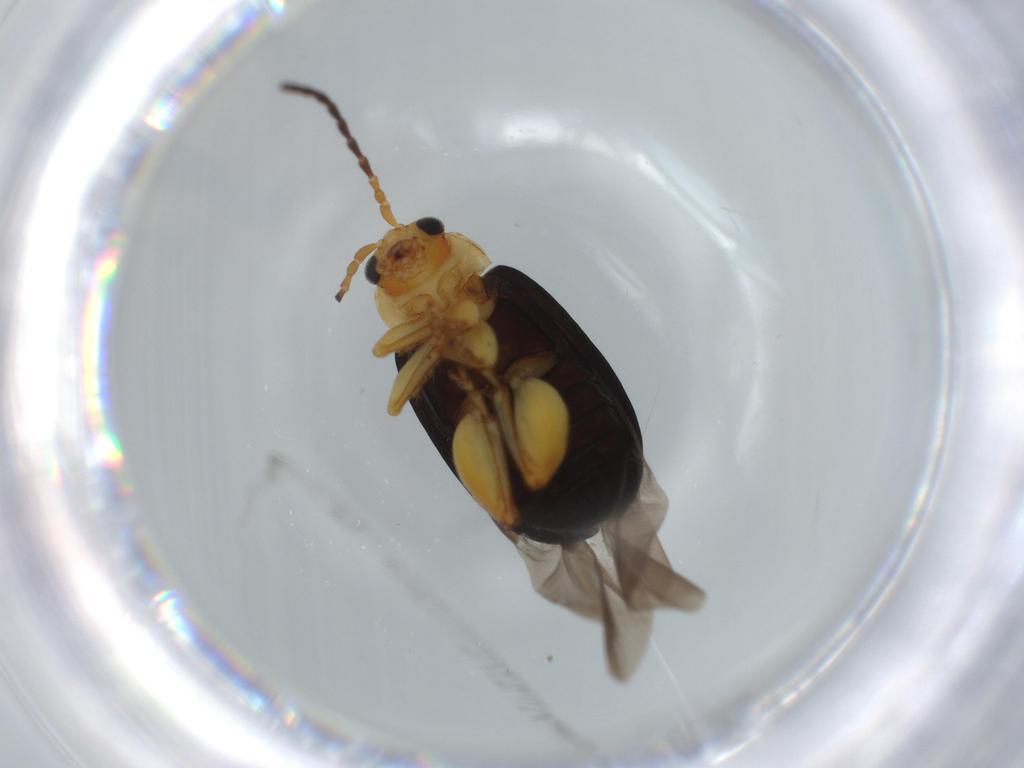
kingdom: Animalia
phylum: Arthropoda
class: Insecta
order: Coleoptera
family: Chrysomelidae
